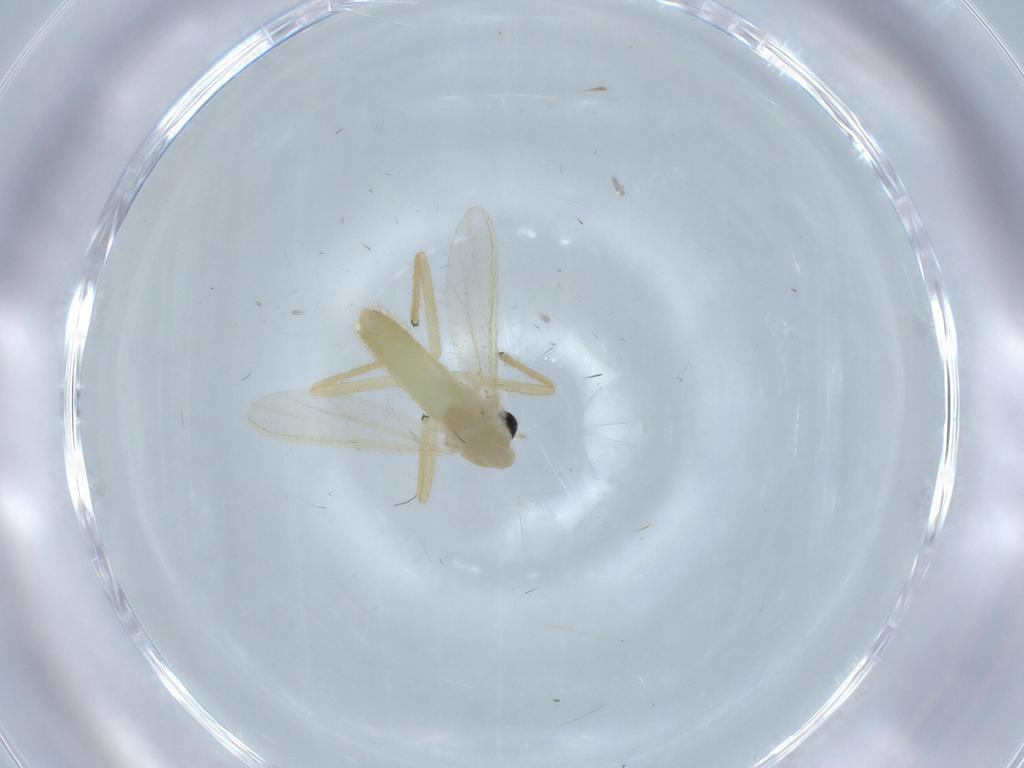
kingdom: Animalia
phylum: Arthropoda
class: Insecta
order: Diptera
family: Chironomidae
